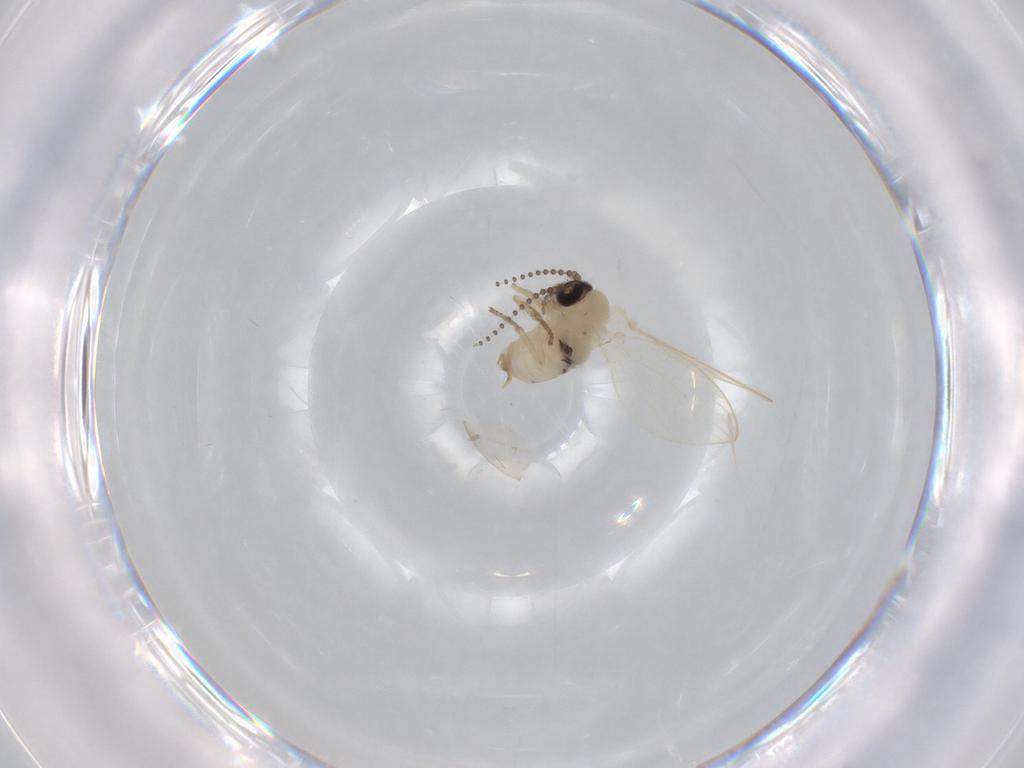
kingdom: Animalia
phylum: Arthropoda
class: Insecta
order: Diptera
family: Psychodidae
